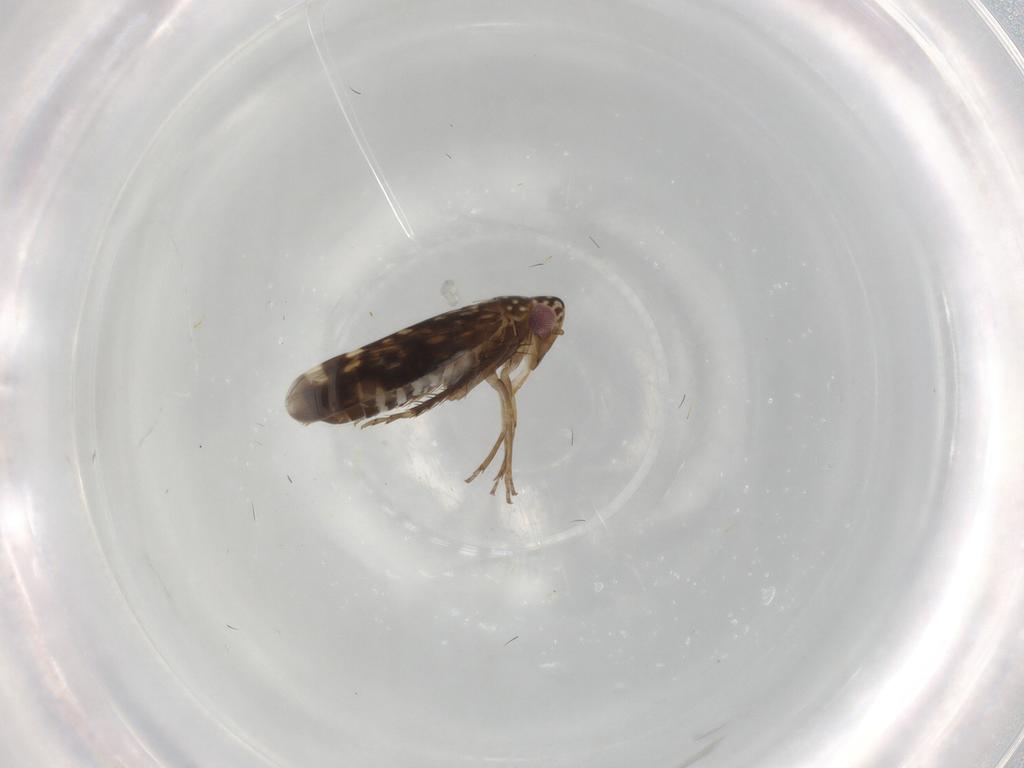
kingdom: Animalia
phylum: Arthropoda
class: Insecta
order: Hemiptera
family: Cicadellidae
